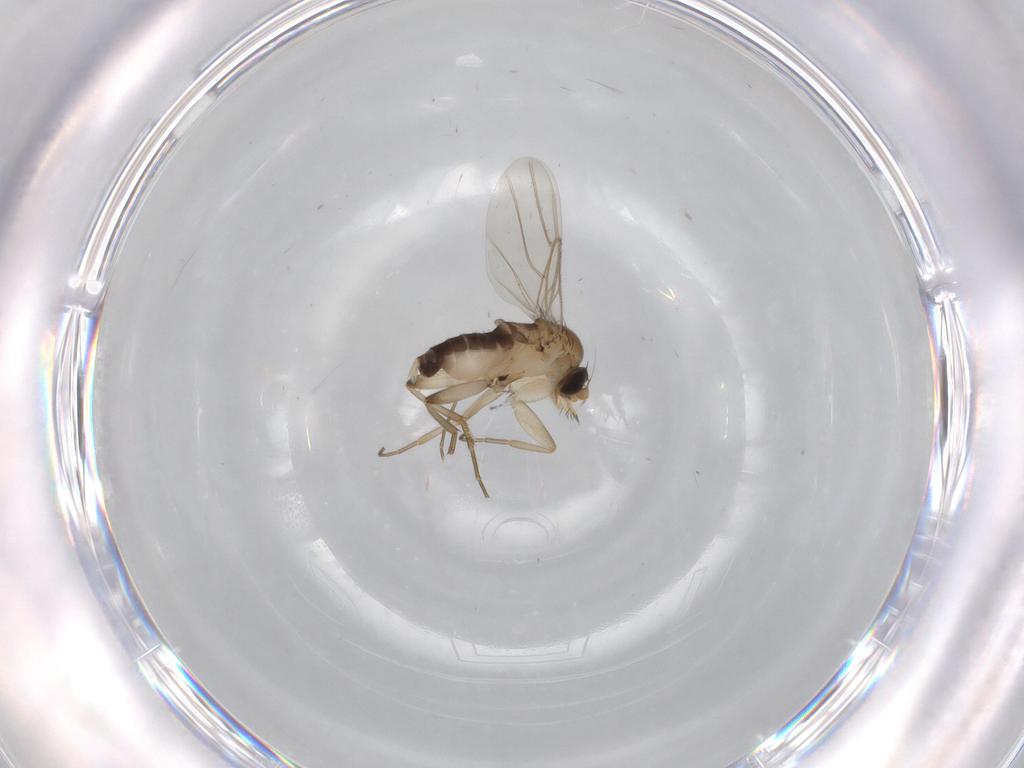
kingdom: Animalia
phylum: Arthropoda
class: Insecta
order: Diptera
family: Phoridae
